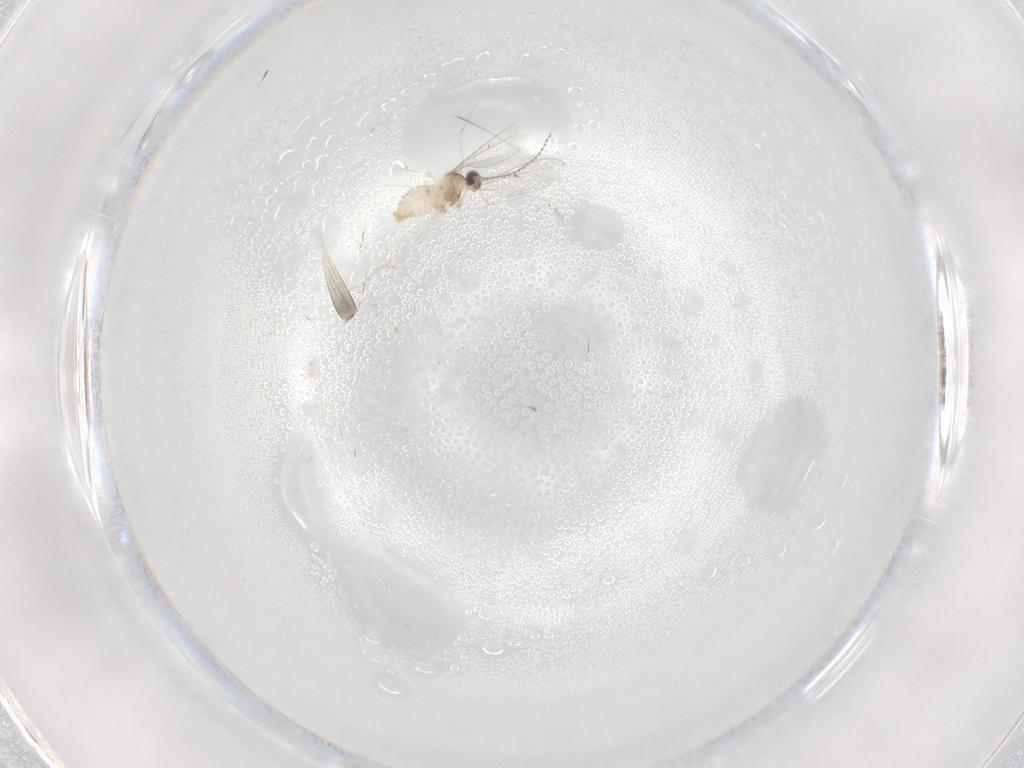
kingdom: Animalia
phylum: Arthropoda
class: Insecta
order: Diptera
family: Cecidomyiidae
